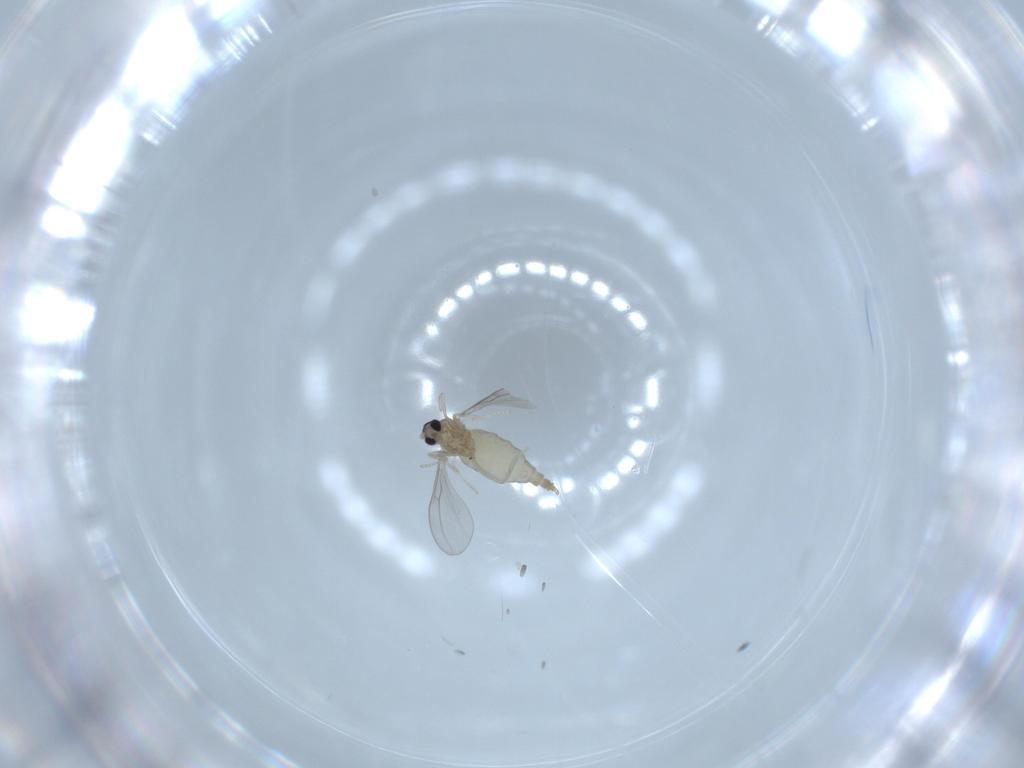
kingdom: Animalia
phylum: Arthropoda
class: Insecta
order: Diptera
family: Cecidomyiidae
